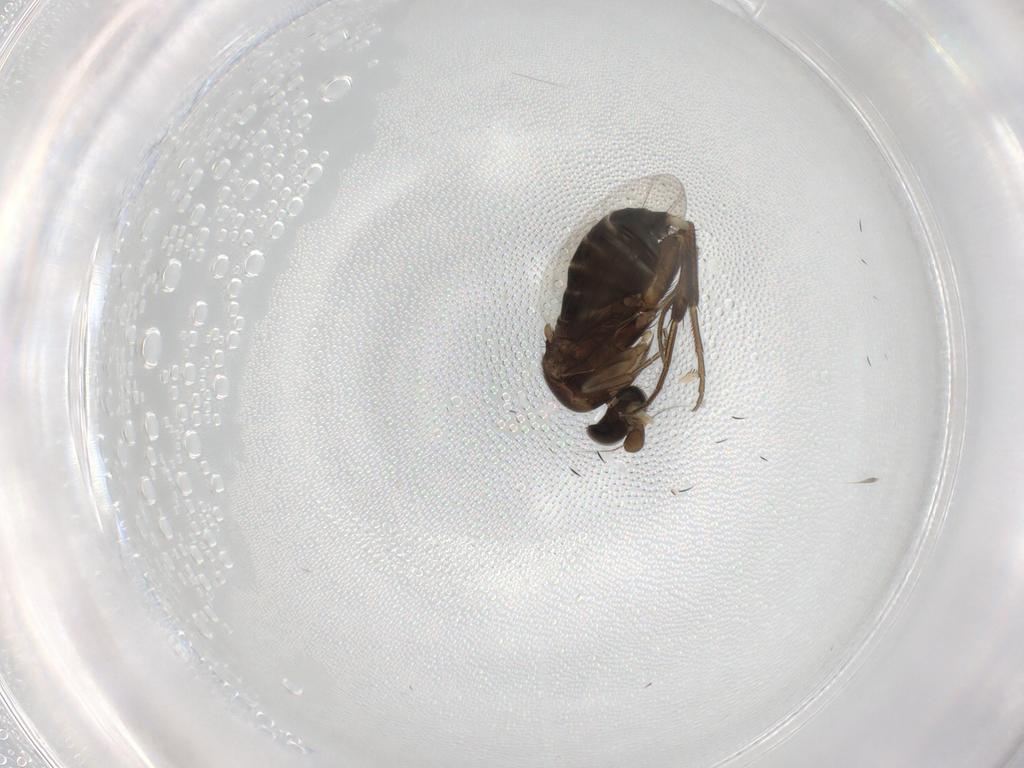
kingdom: Animalia
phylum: Arthropoda
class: Insecta
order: Diptera
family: Phoridae
